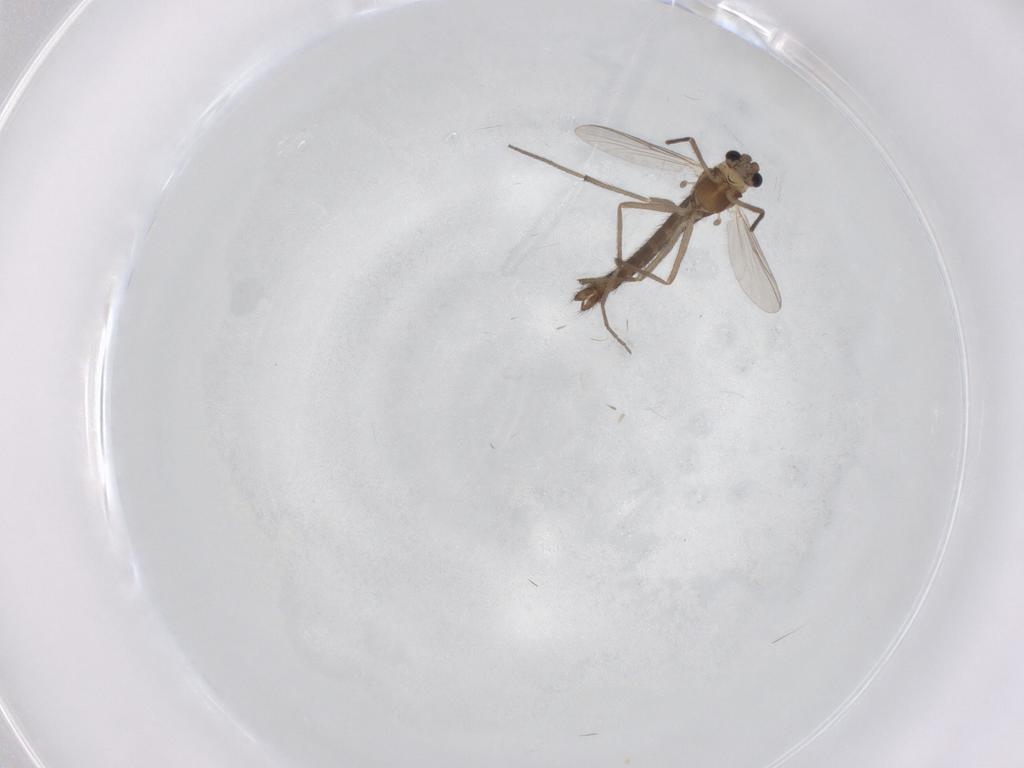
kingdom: Animalia
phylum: Arthropoda
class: Insecta
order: Diptera
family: Chironomidae
